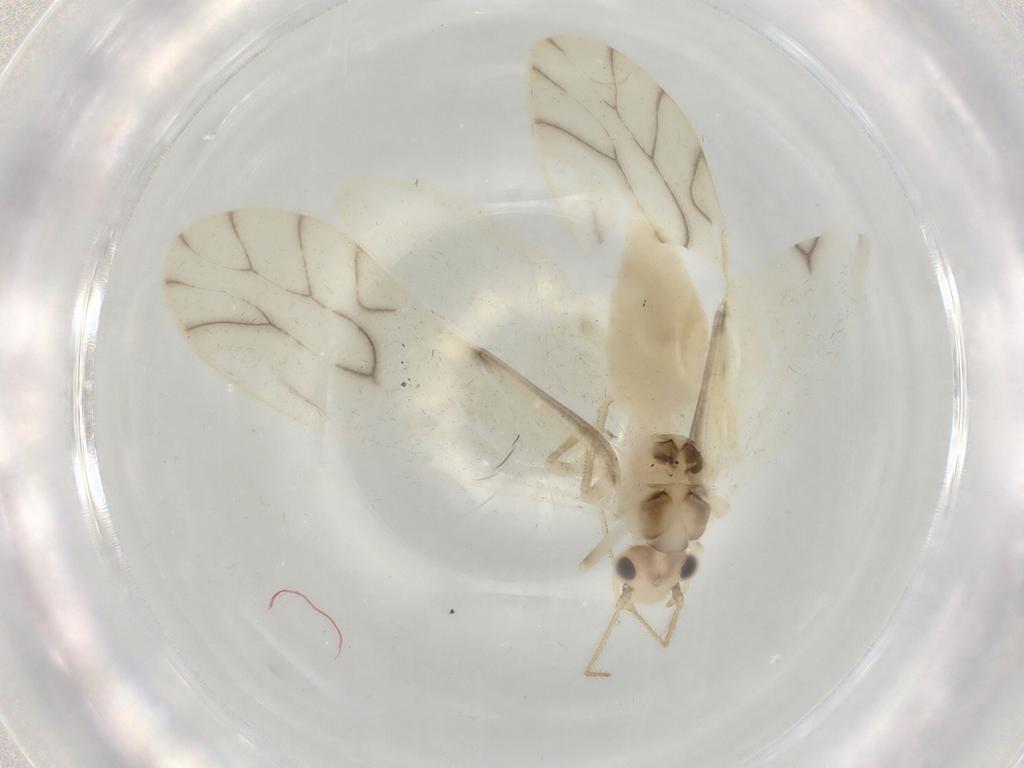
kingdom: Animalia
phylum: Arthropoda
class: Insecta
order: Psocodea
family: Caeciliusidae
